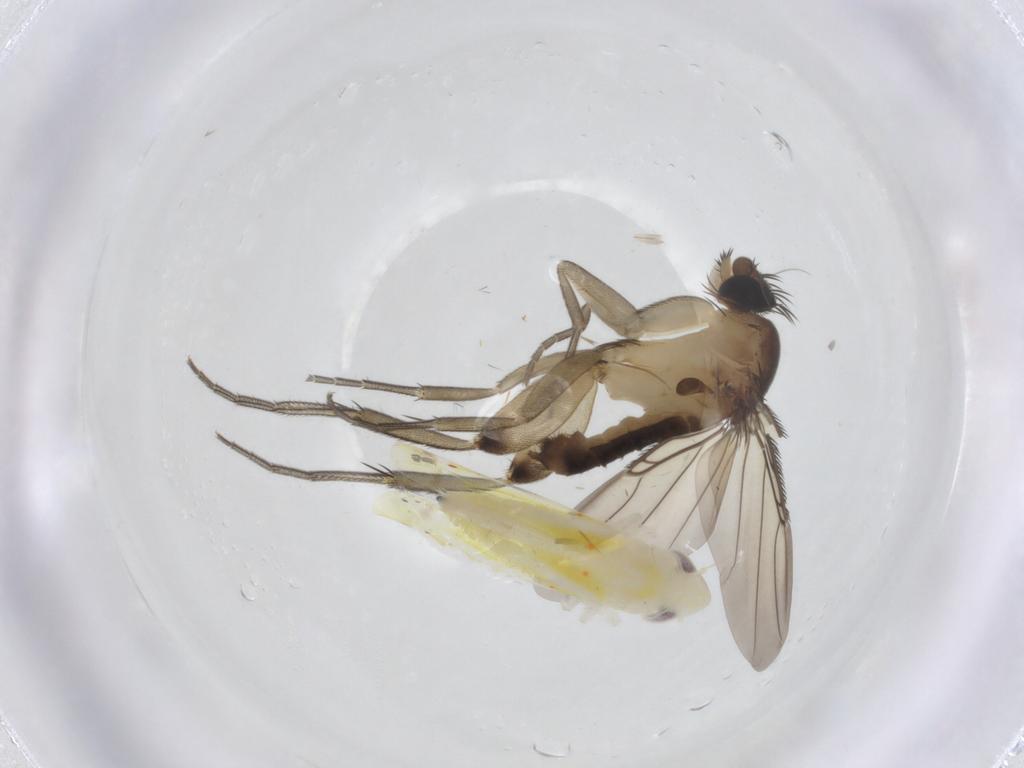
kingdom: Animalia
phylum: Arthropoda
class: Insecta
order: Diptera
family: Phoridae
